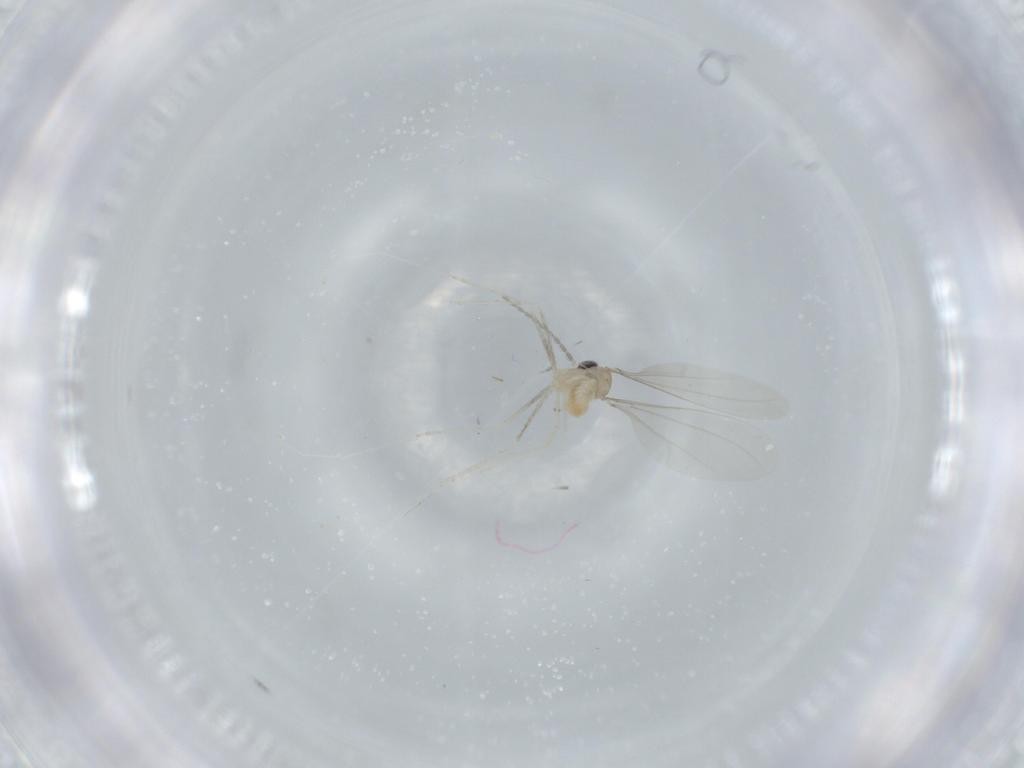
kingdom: Animalia
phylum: Arthropoda
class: Insecta
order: Diptera
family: Cecidomyiidae
